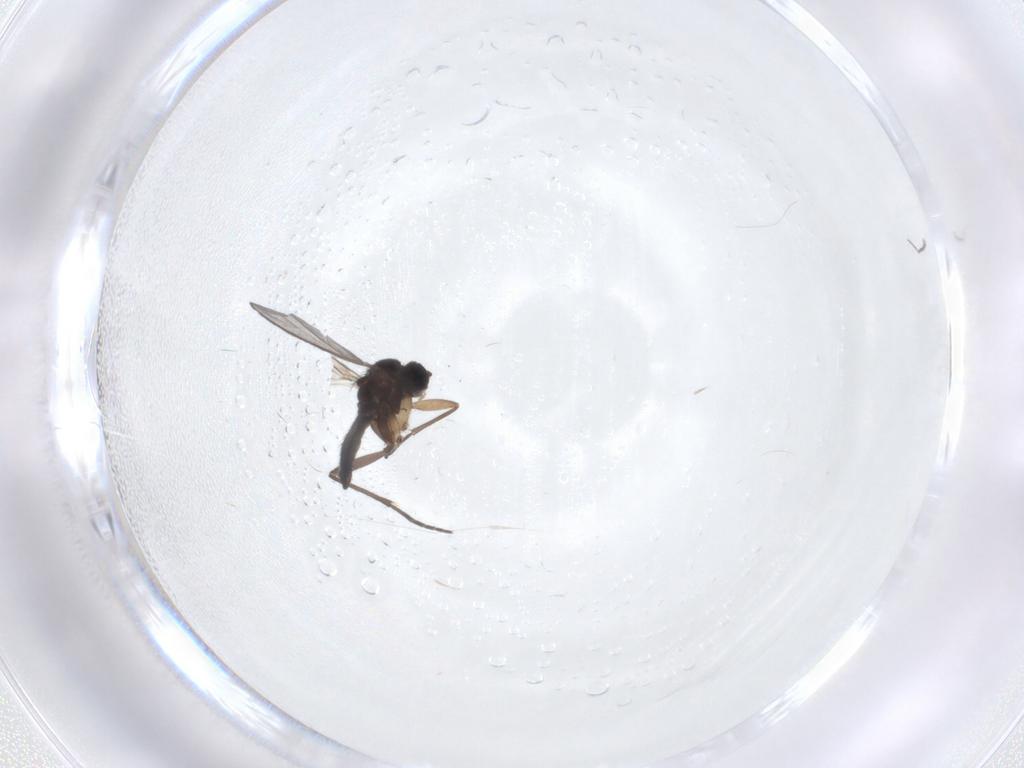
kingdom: Animalia
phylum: Arthropoda
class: Insecta
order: Diptera
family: Sciaridae
